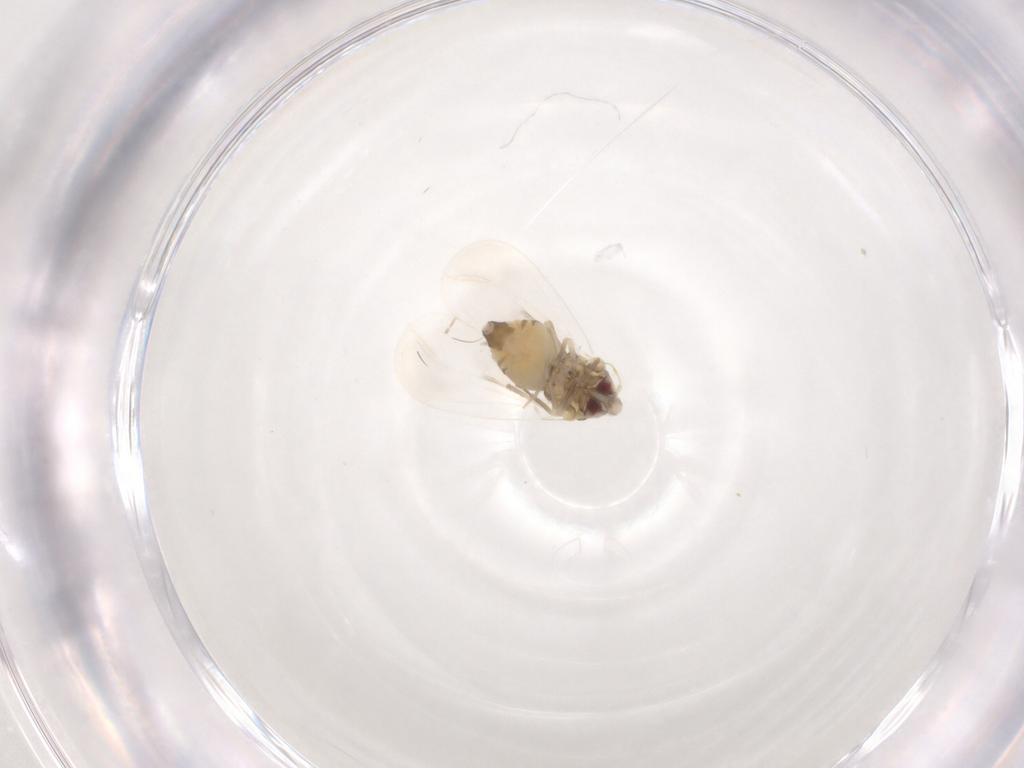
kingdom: Animalia
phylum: Arthropoda
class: Insecta
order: Hemiptera
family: Aleyrodidae
